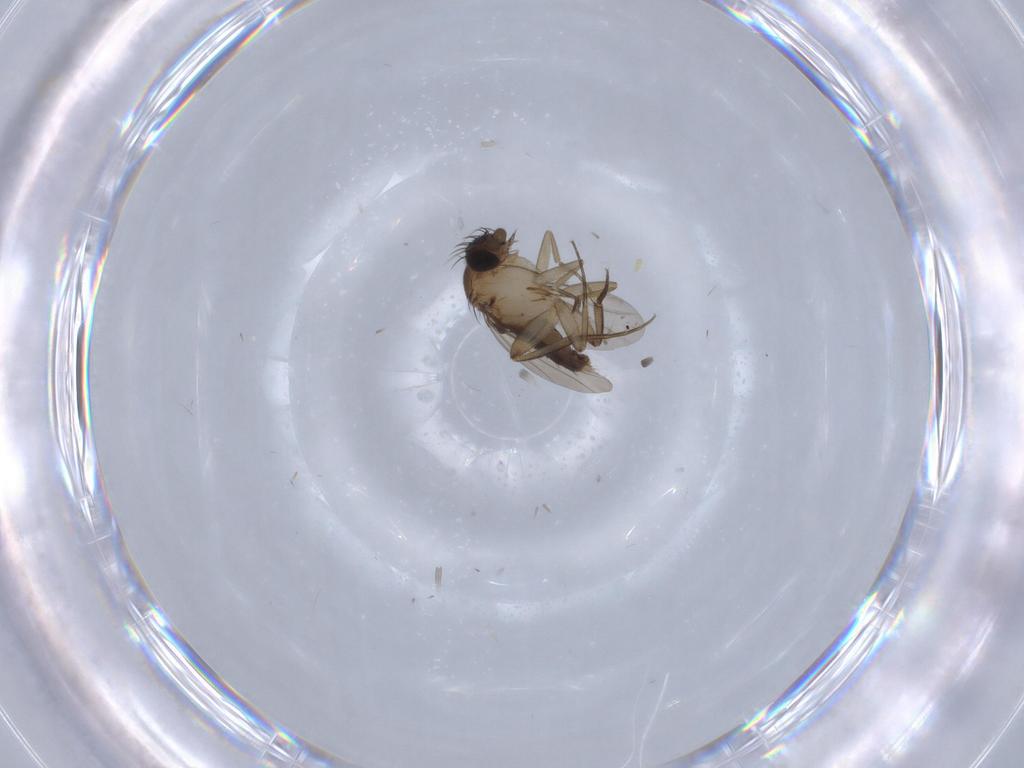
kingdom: Animalia
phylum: Arthropoda
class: Insecta
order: Diptera
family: Phoridae
